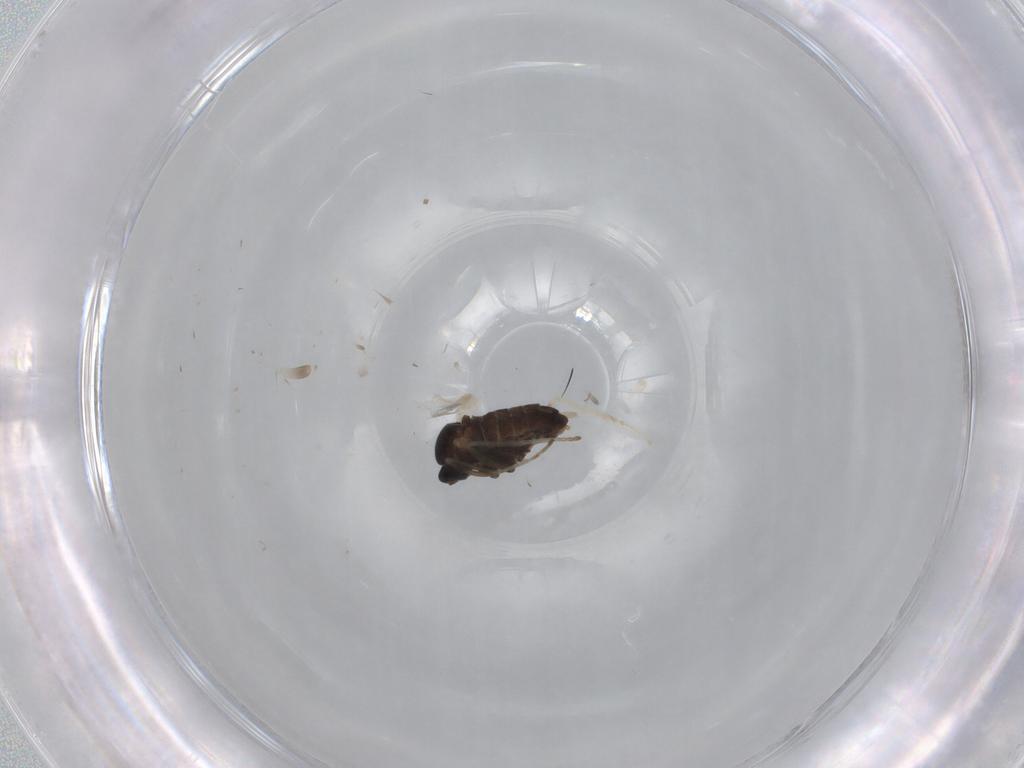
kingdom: Animalia
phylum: Arthropoda
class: Insecta
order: Diptera
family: Cecidomyiidae
